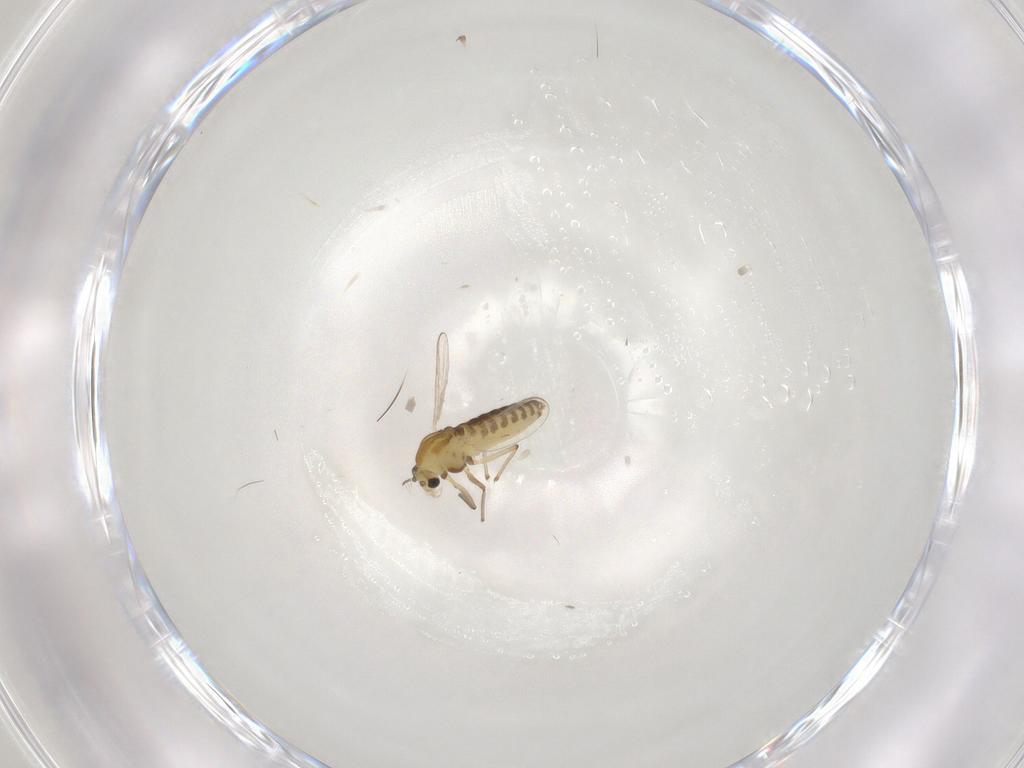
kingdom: Animalia
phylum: Arthropoda
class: Insecta
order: Diptera
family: Chironomidae
